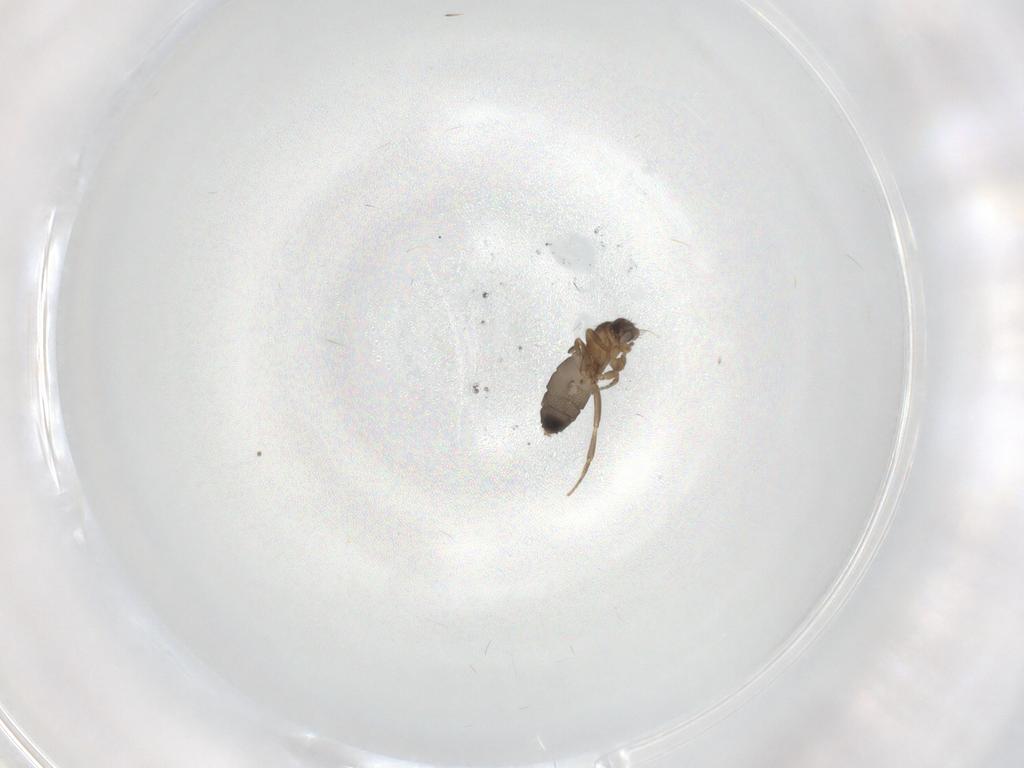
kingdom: Animalia
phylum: Arthropoda
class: Insecta
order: Diptera
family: Phoridae
